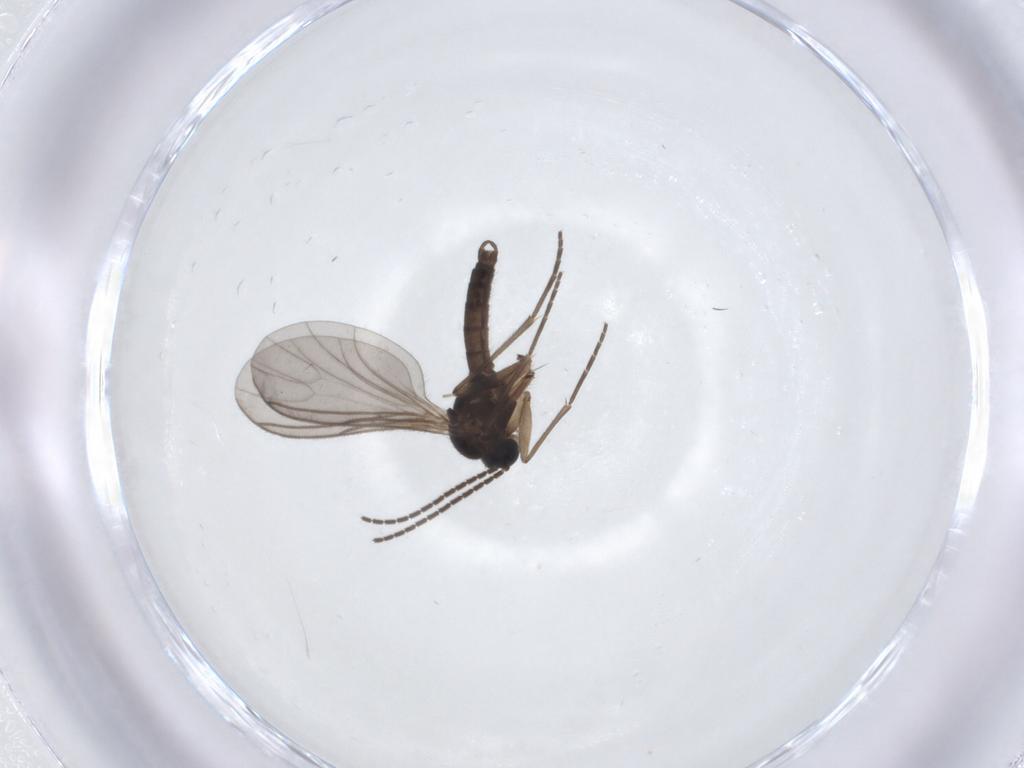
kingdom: Animalia
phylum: Arthropoda
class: Insecta
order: Diptera
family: Sciaridae
